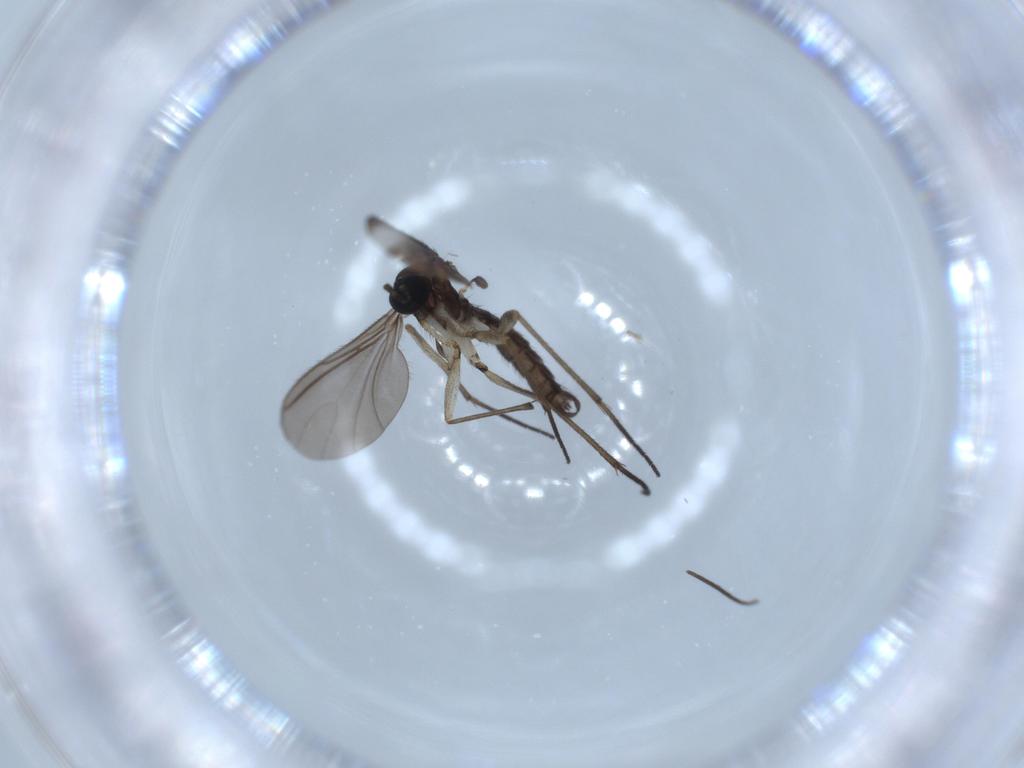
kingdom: Animalia
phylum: Arthropoda
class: Insecta
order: Diptera
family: Sciaridae
